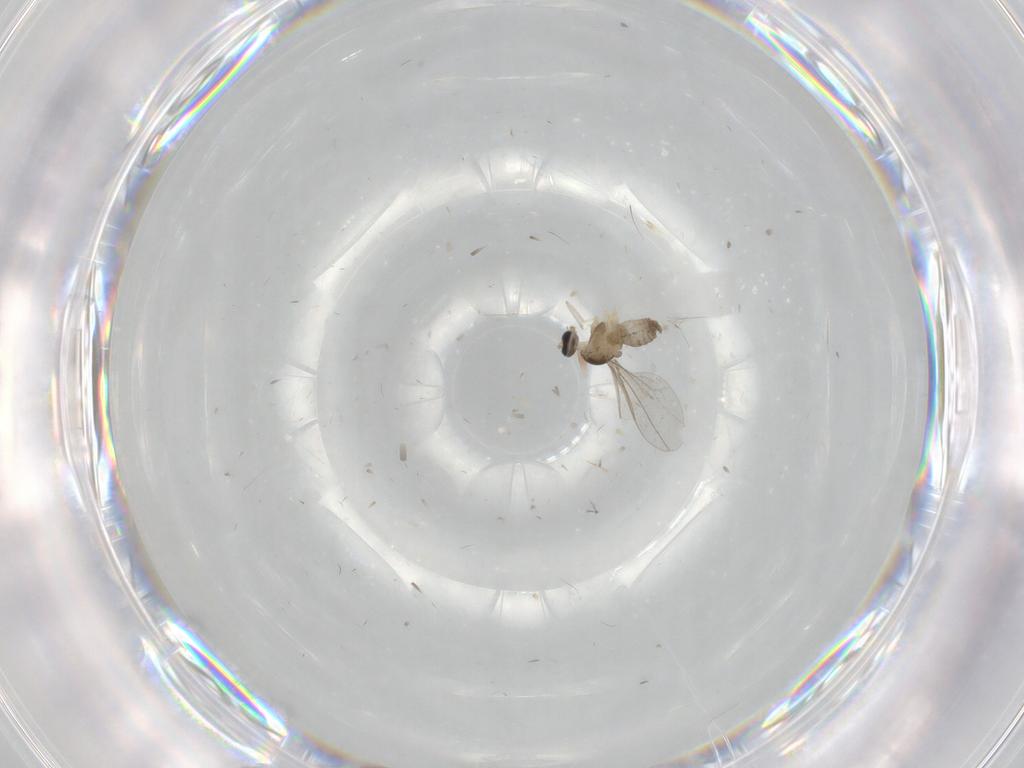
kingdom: Animalia
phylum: Arthropoda
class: Insecta
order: Diptera
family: Cecidomyiidae
